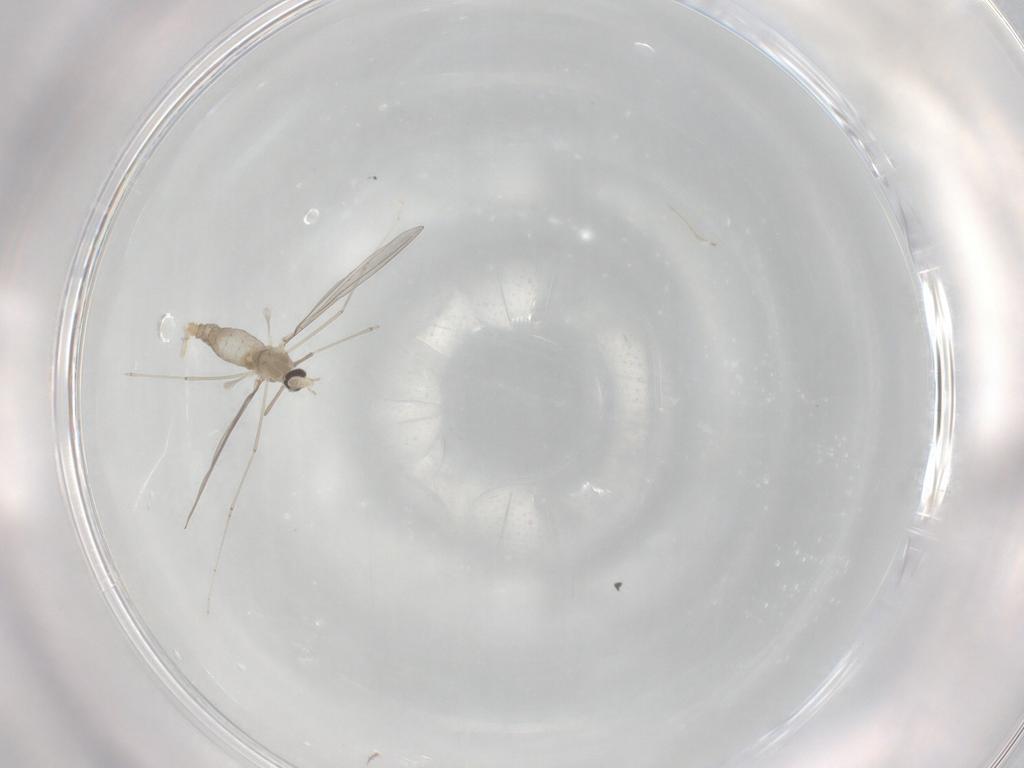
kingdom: Animalia
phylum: Arthropoda
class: Insecta
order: Diptera
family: Cecidomyiidae
